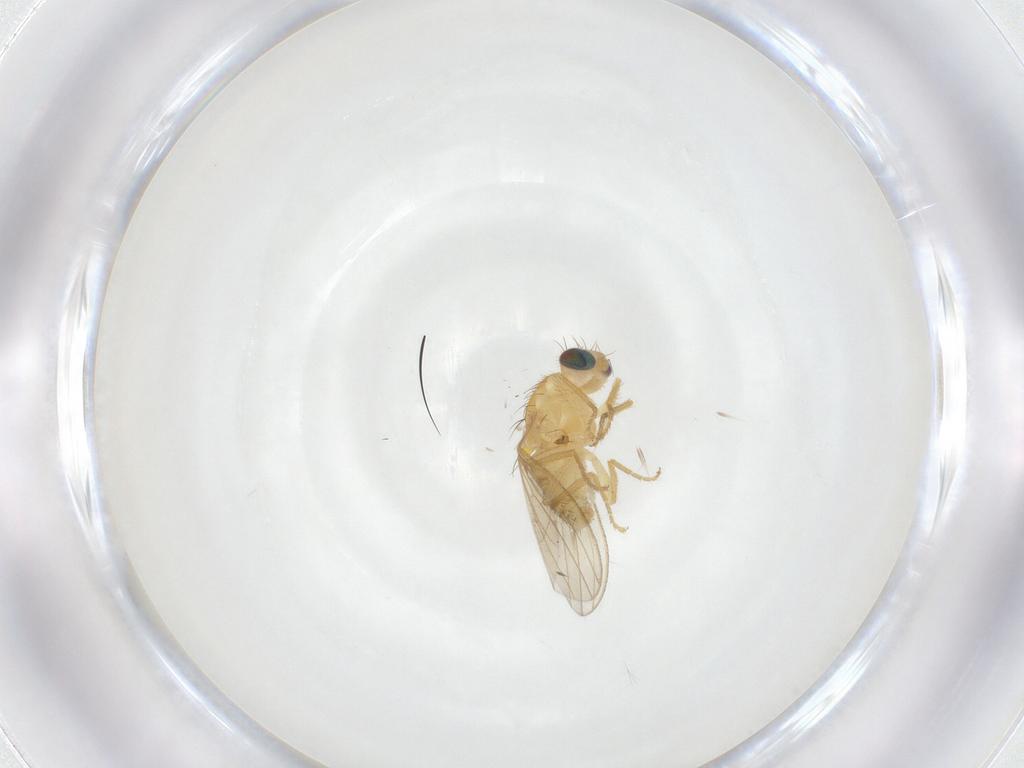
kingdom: Animalia
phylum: Arthropoda
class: Insecta
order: Diptera
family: Chyromyidae
